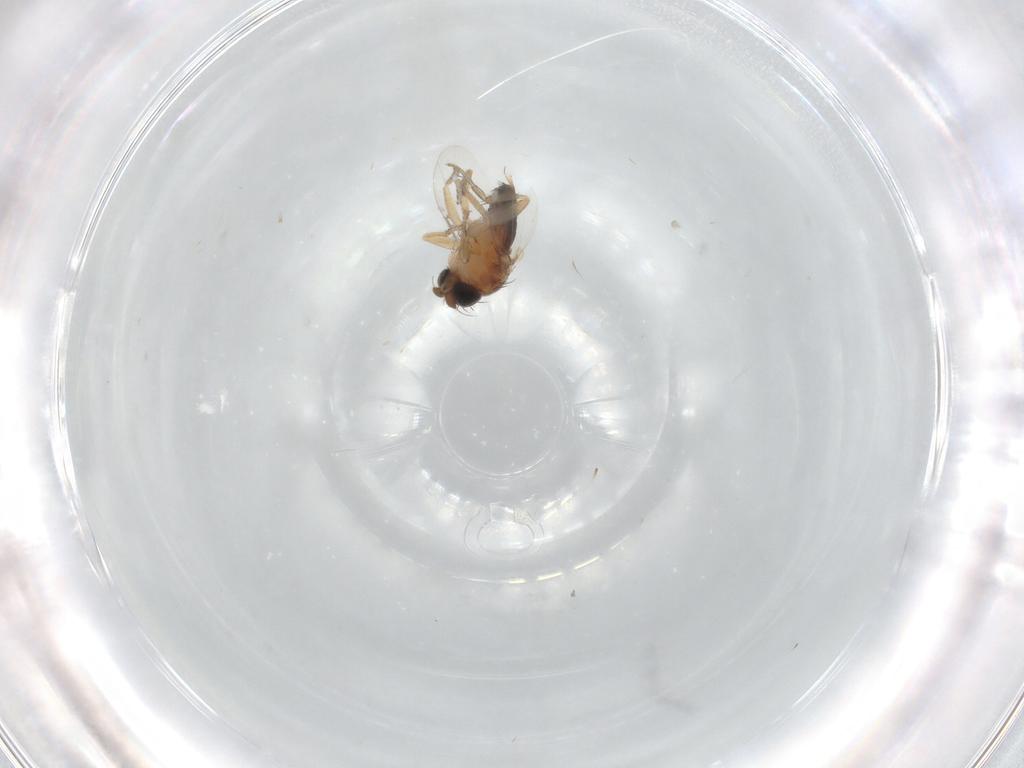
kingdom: Animalia
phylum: Arthropoda
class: Insecta
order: Diptera
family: Phoridae
